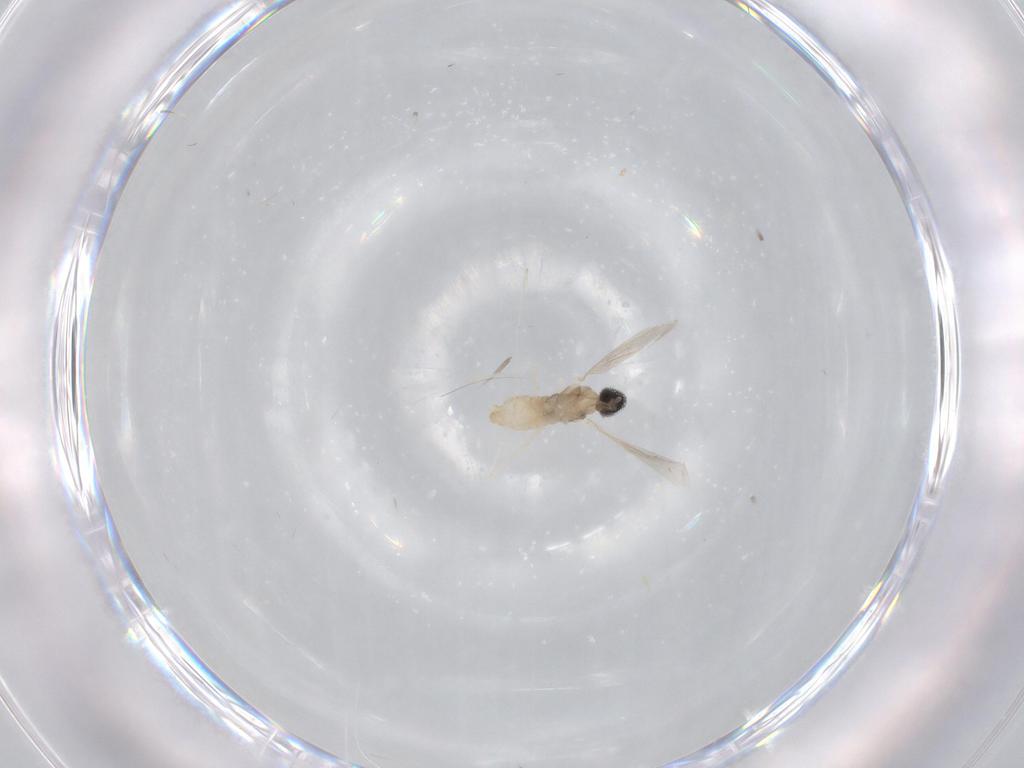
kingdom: Animalia
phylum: Arthropoda
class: Insecta
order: Diptera
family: Cecidomyiidae
